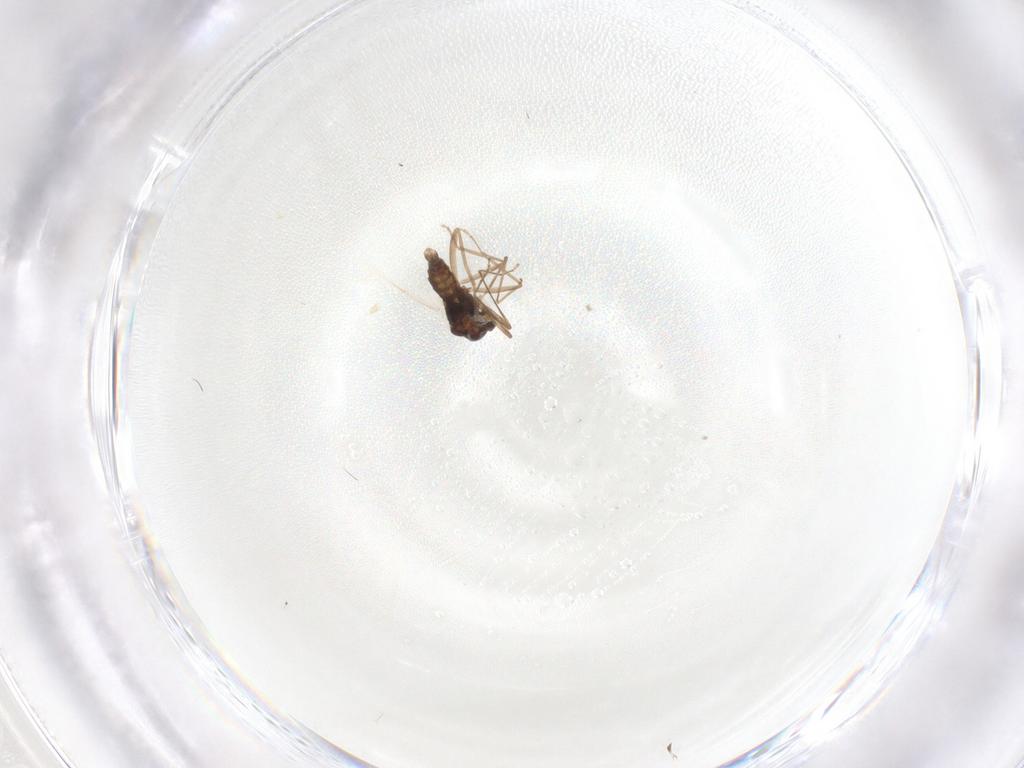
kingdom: Animalia
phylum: Arthropoda
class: Insecta
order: Diptera
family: Cecidomyiidae
